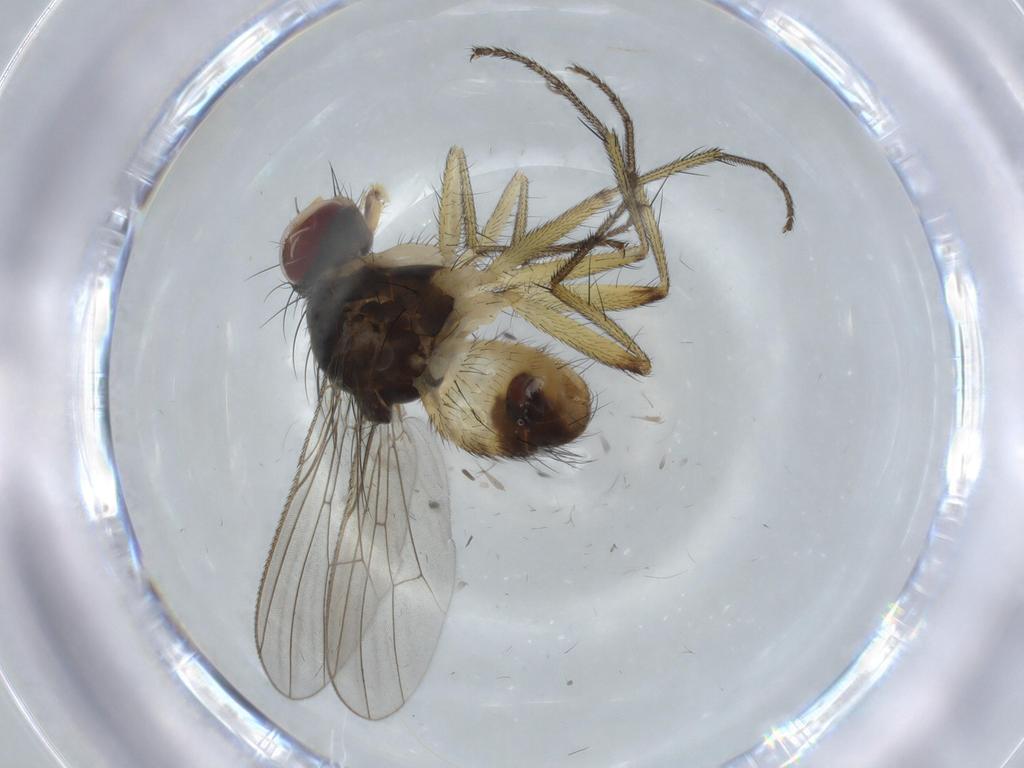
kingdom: Animalia
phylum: Arthropoda
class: Insecta
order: Diptera
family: Muscidae
